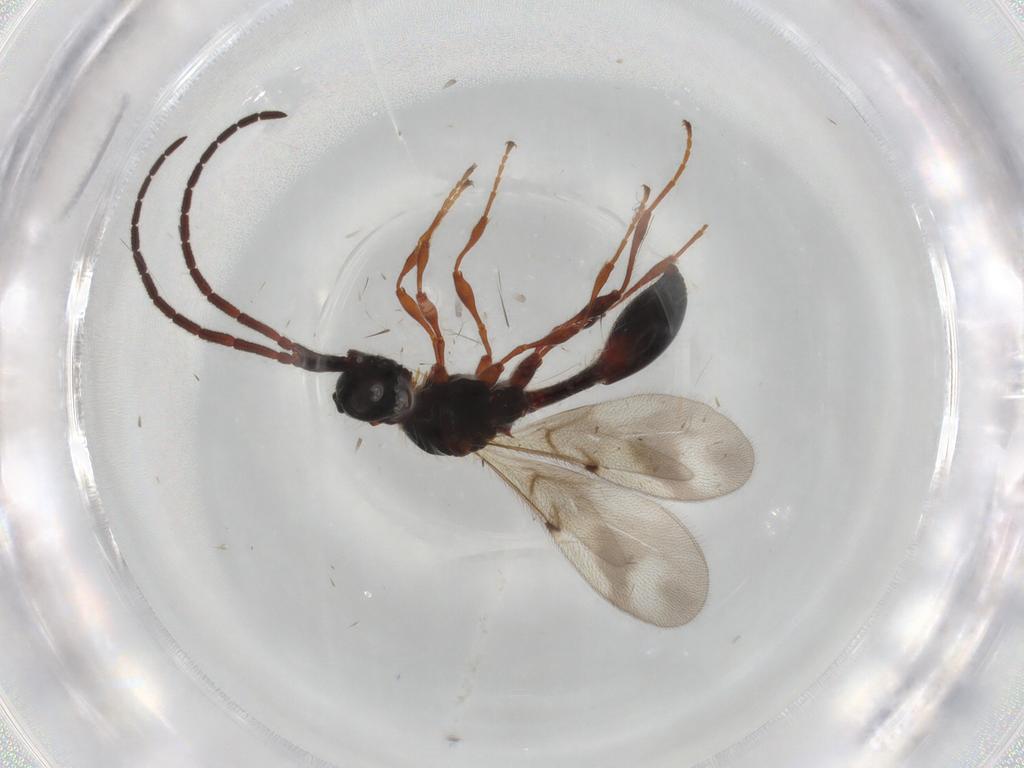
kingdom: Animalia
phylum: Arthropoda
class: Insecta
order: Hymenoptera
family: Diapriidae
